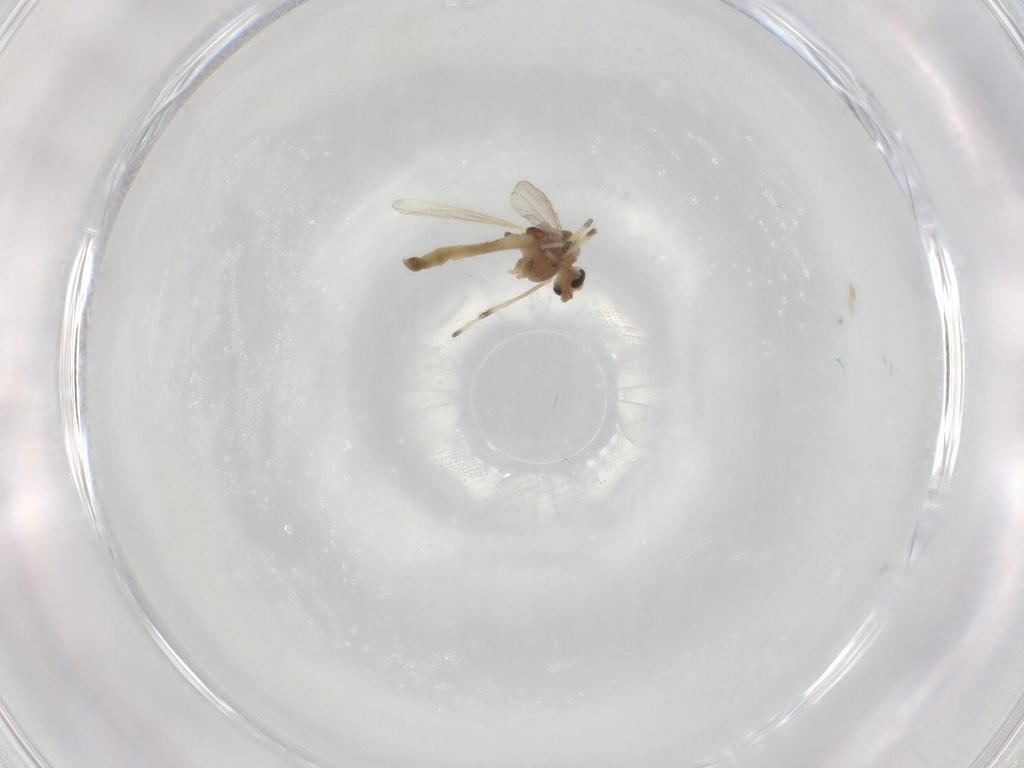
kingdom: Animalia
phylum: Arthropoda
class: Insecta
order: Diptera
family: Chironomidae
